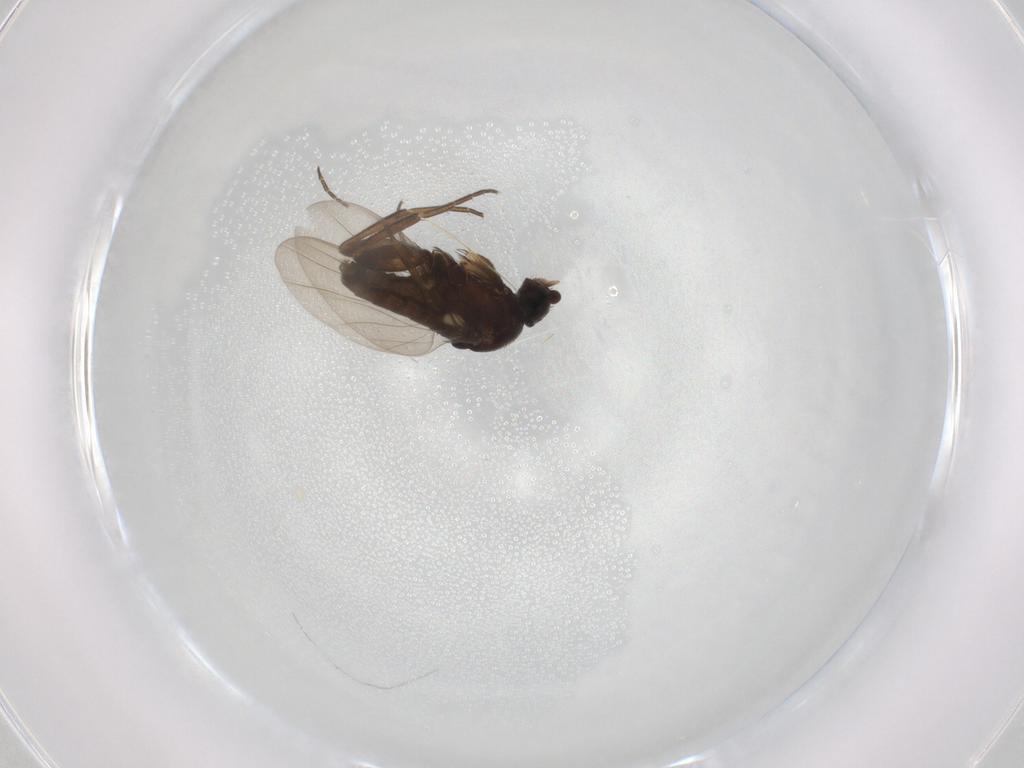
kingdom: Animalia
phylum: Arthropoda
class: Insecta
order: Diptera
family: Phoridae
